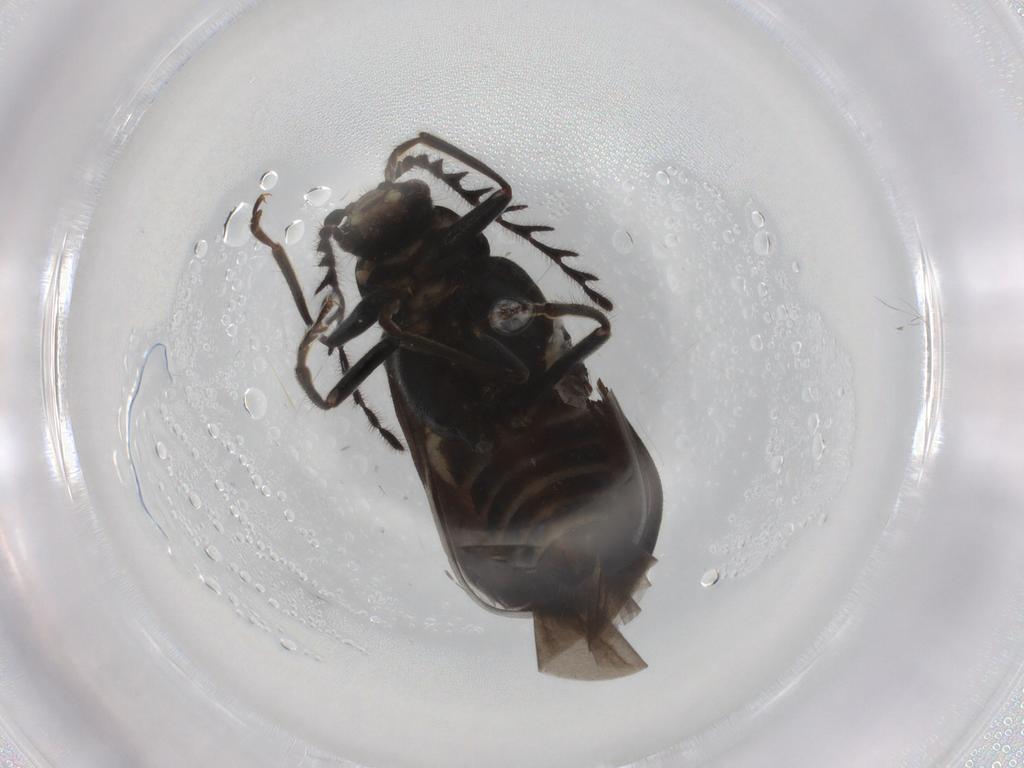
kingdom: Animalia
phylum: Arthropoda
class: Insecta
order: Coleoptera
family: Melyridae
